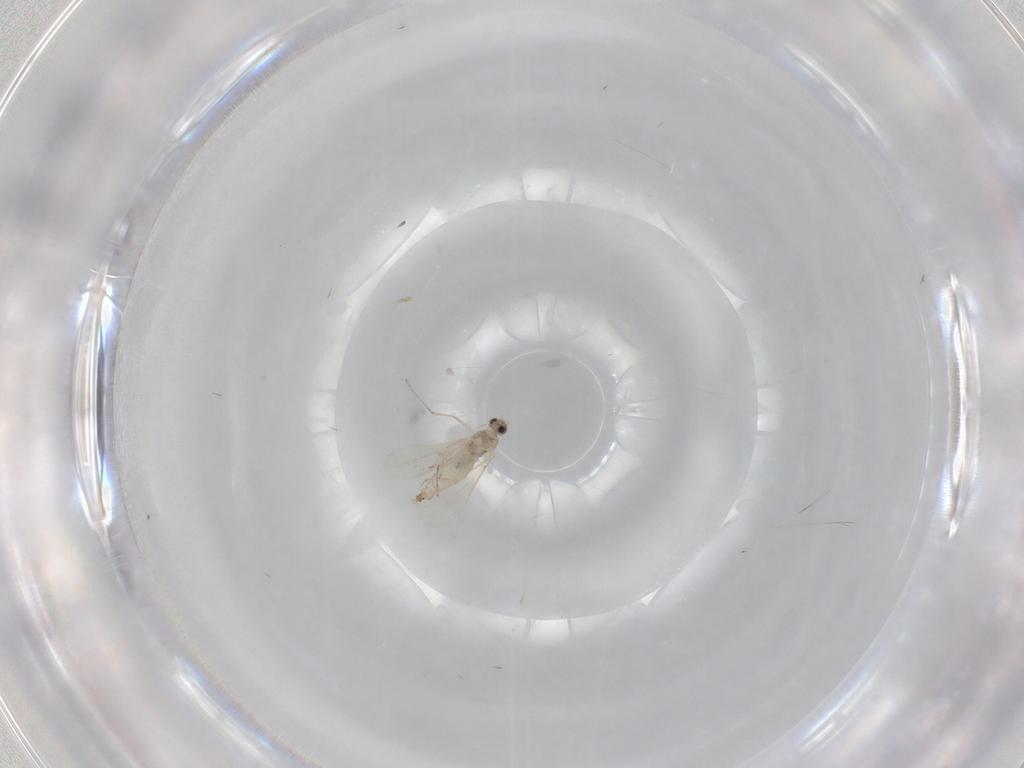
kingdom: Animalia
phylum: Arthropoda
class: Insecta
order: Diptera
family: Cecidomyiidae
